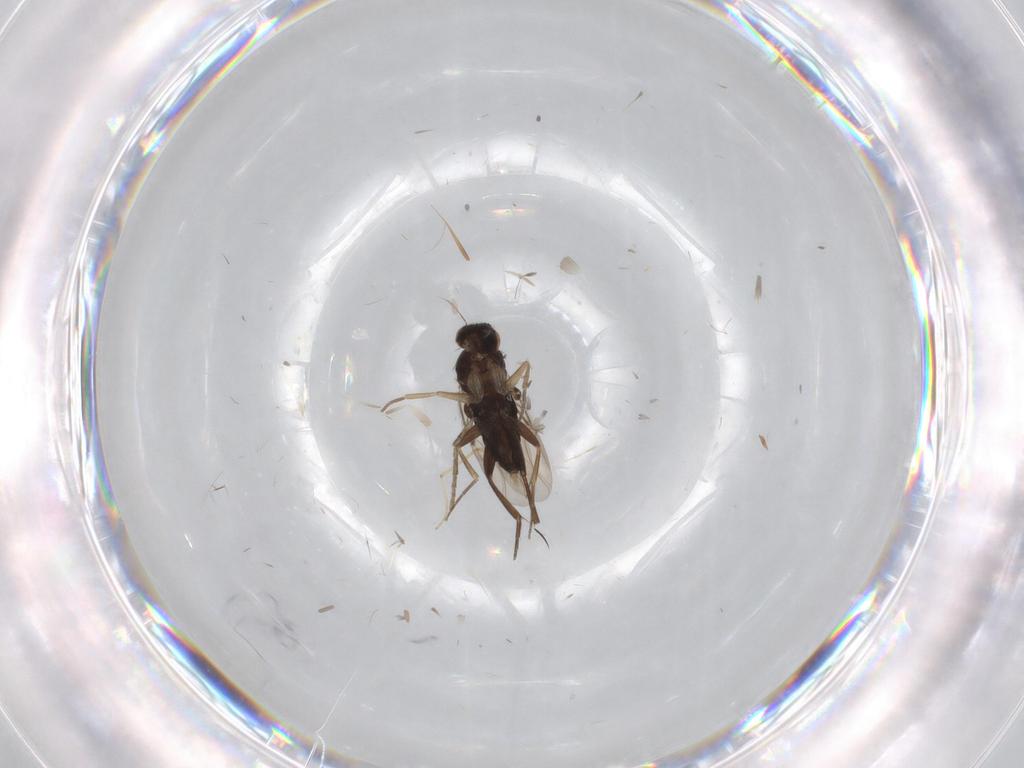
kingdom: Animalia
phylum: Arthropoda
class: Insecta
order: Diptera
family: Phoridae
